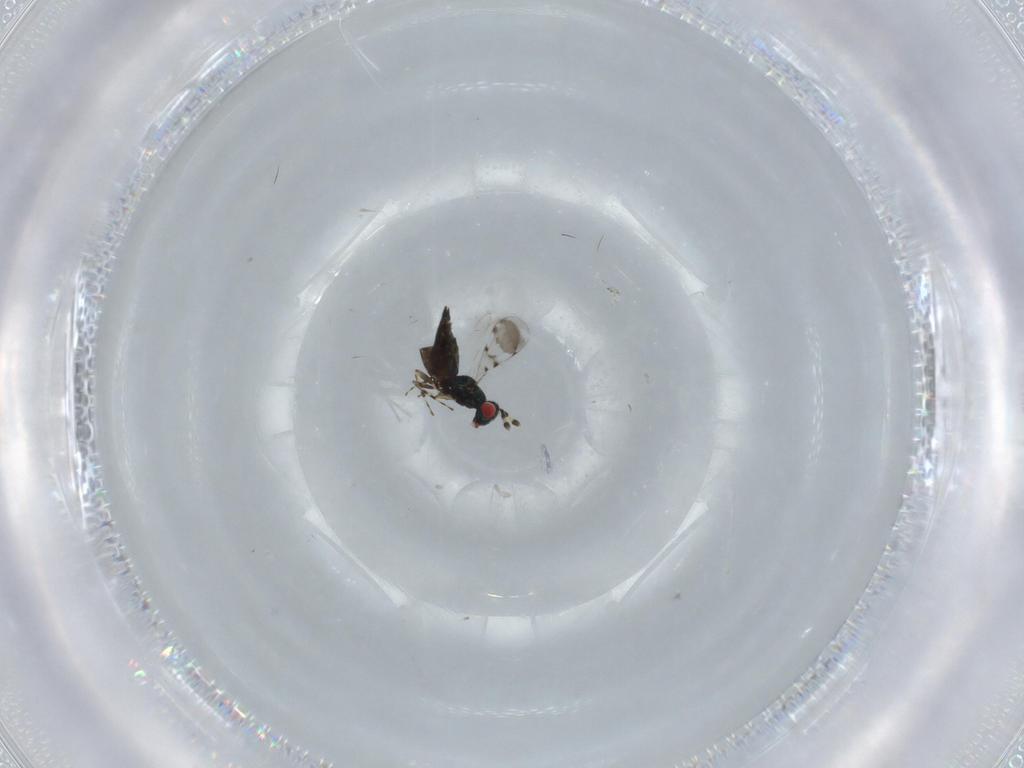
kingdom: Animalia
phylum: Arthropoda
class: Insecta
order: Hymenoptera
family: Eulophidae
